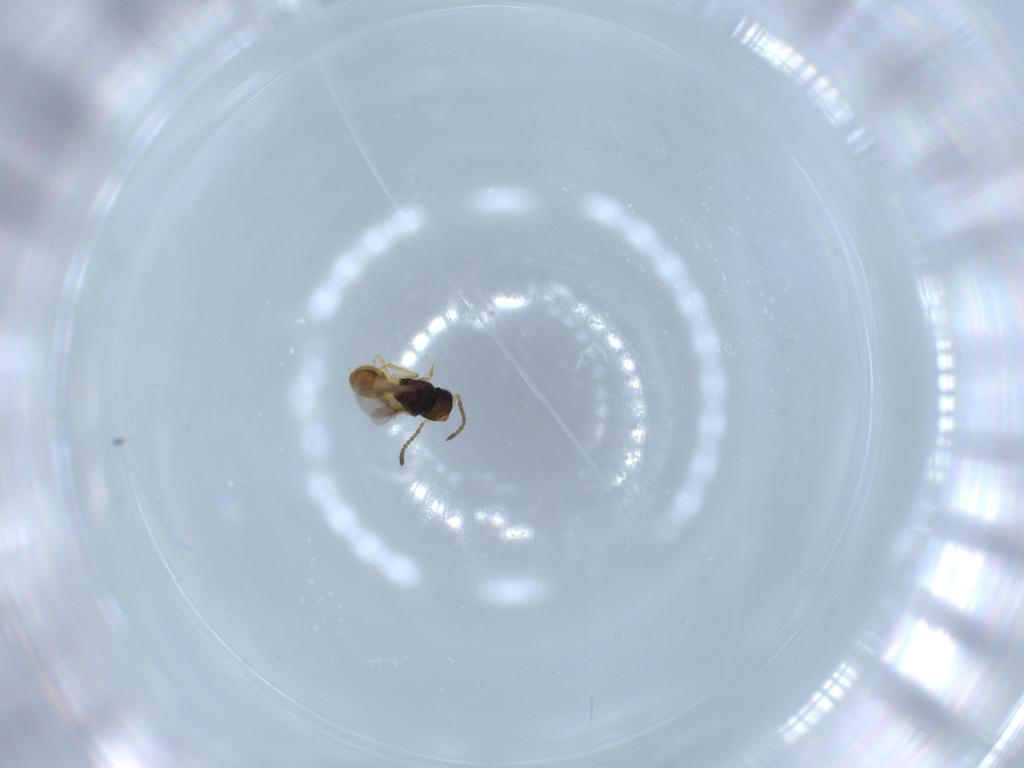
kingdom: Animalia
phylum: Arthropoda
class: Insecta
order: Hymenoptera
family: Scelionidae
